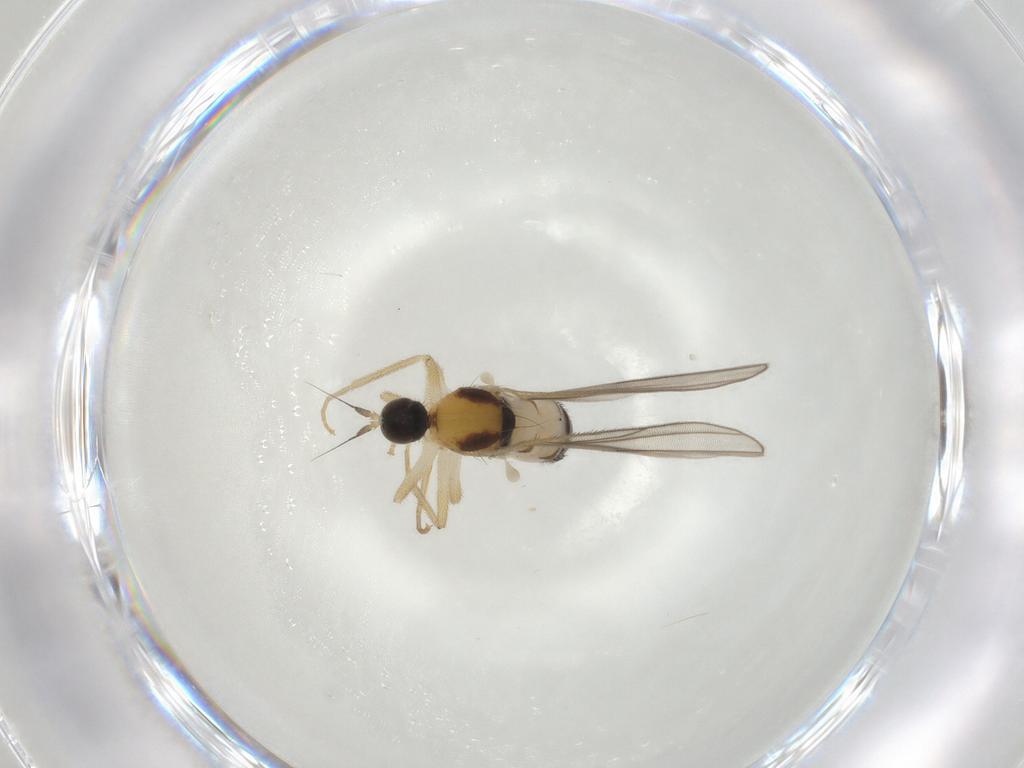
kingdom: Animalia
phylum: Arthropoda
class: Insecta
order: Diptera
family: Hybotidae
